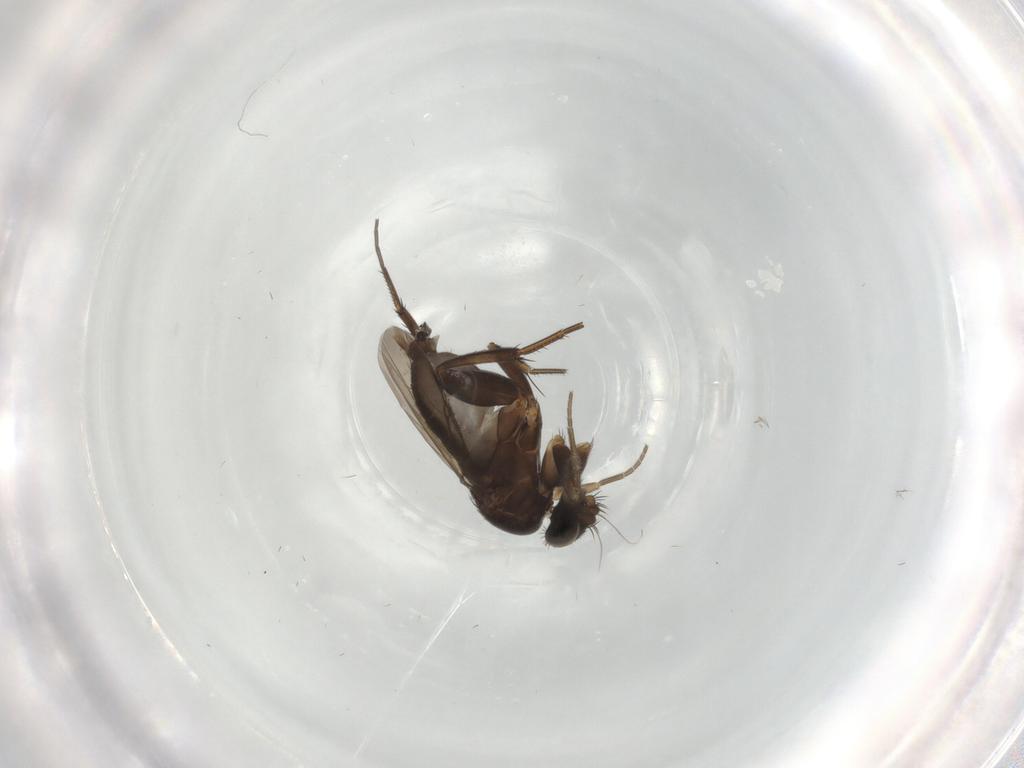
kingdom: Animalia
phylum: Arthropoda
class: Insecta
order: Diptera
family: Phoridae
